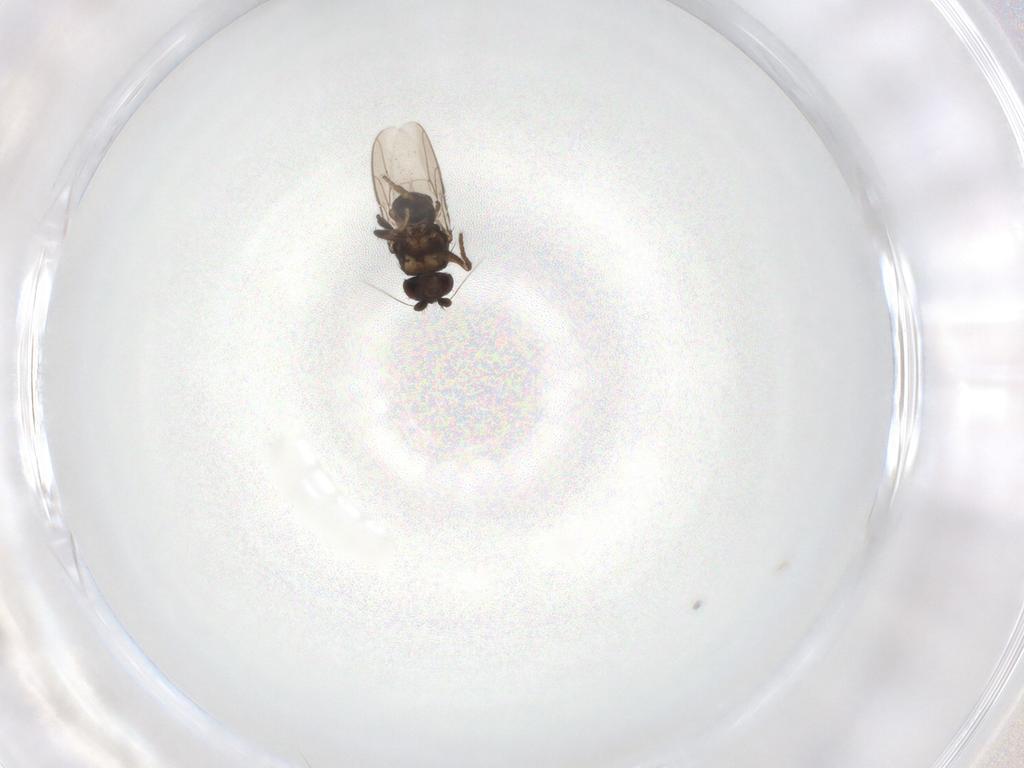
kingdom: Animalia
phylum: Arthropoda
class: Insecta
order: Diptera
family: Sphaeroceridae
